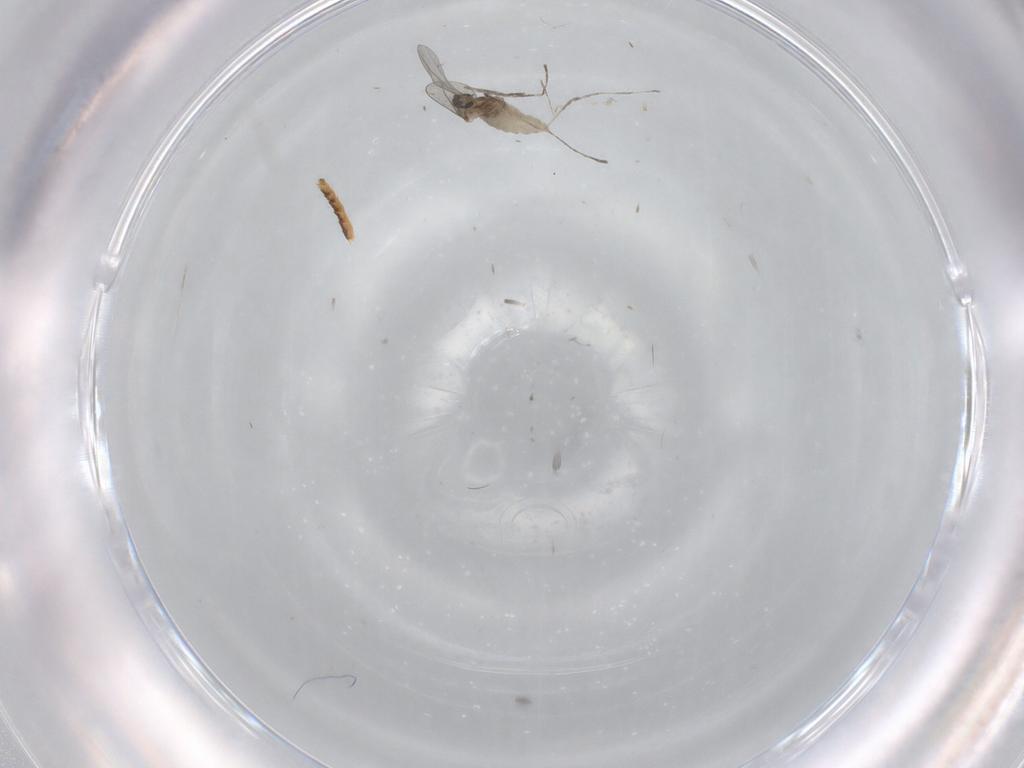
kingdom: Animalia
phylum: Arthropoda
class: Insecta
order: Diptera
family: Cecidomyiidae
